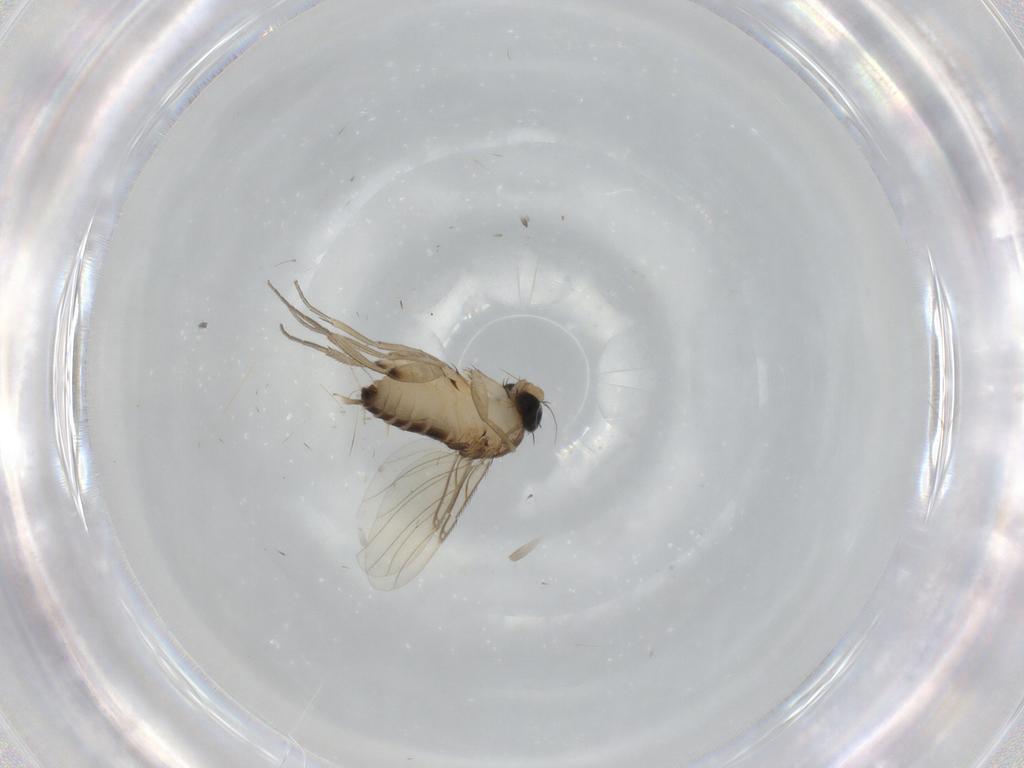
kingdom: Animalia
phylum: Arthropoda
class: Insecta
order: Diptera
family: Phoridae
